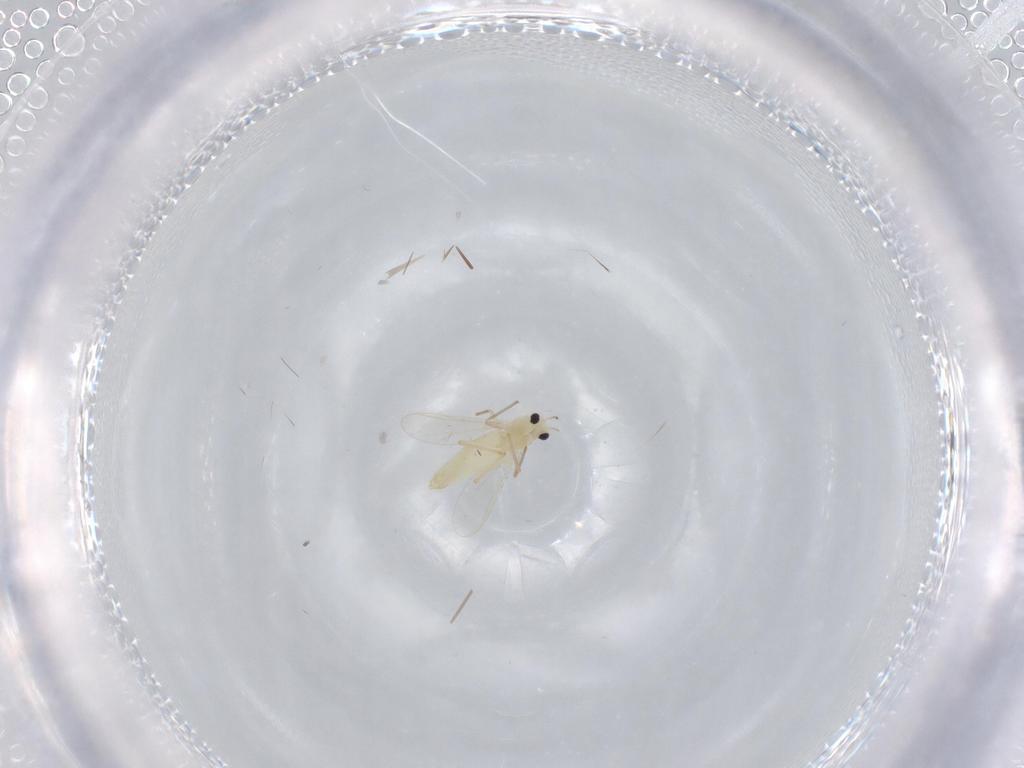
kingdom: Animalia
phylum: Arthropoda
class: Insecta
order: Diptera
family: Chironomidae
